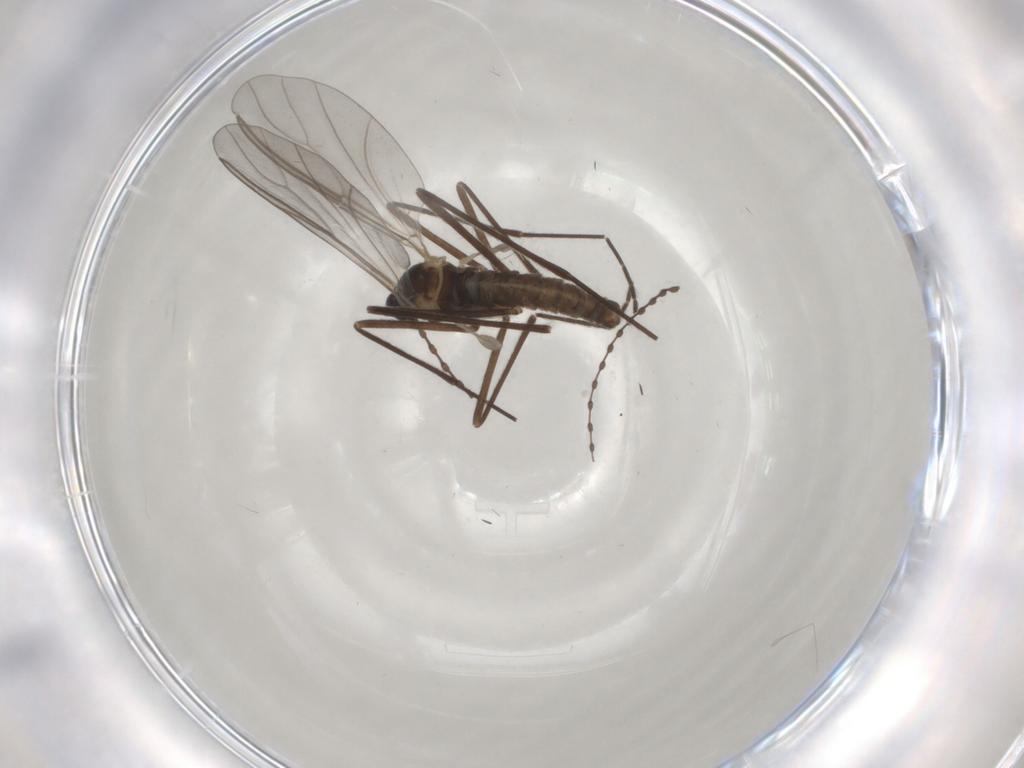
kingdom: Animalia
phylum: Arthropoda
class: Insecta
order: Diptera
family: Cecidomyiidae
